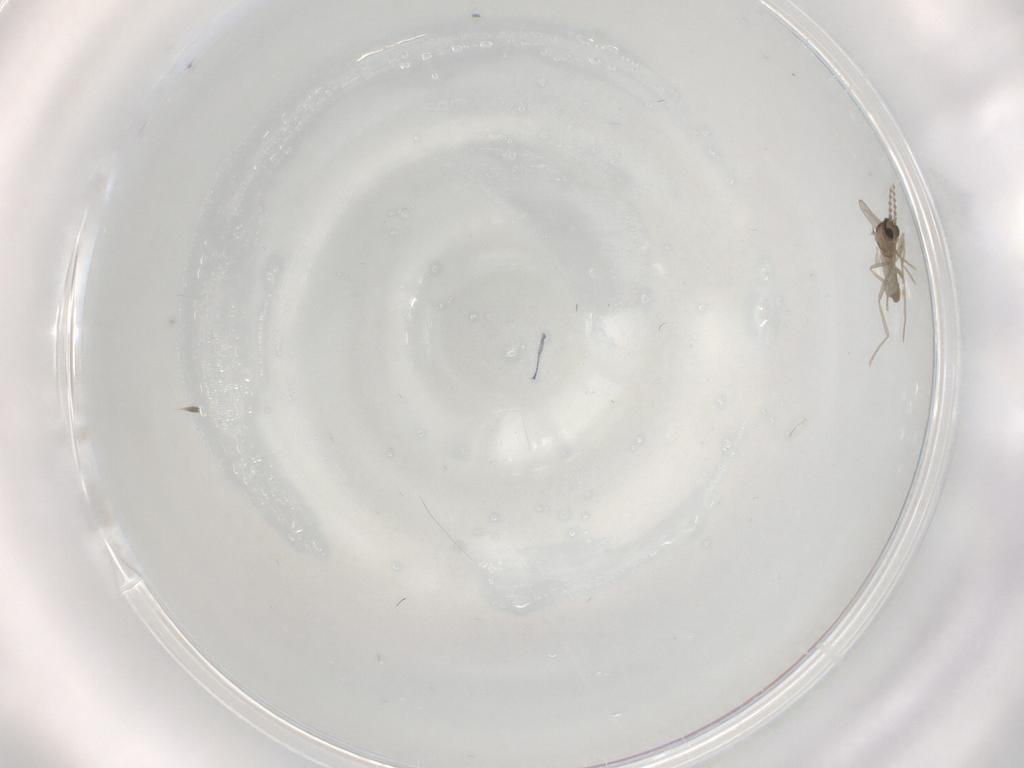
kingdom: Animalia
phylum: Arthropoda
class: Insecta
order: Diptera
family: Cecidomyiidae
